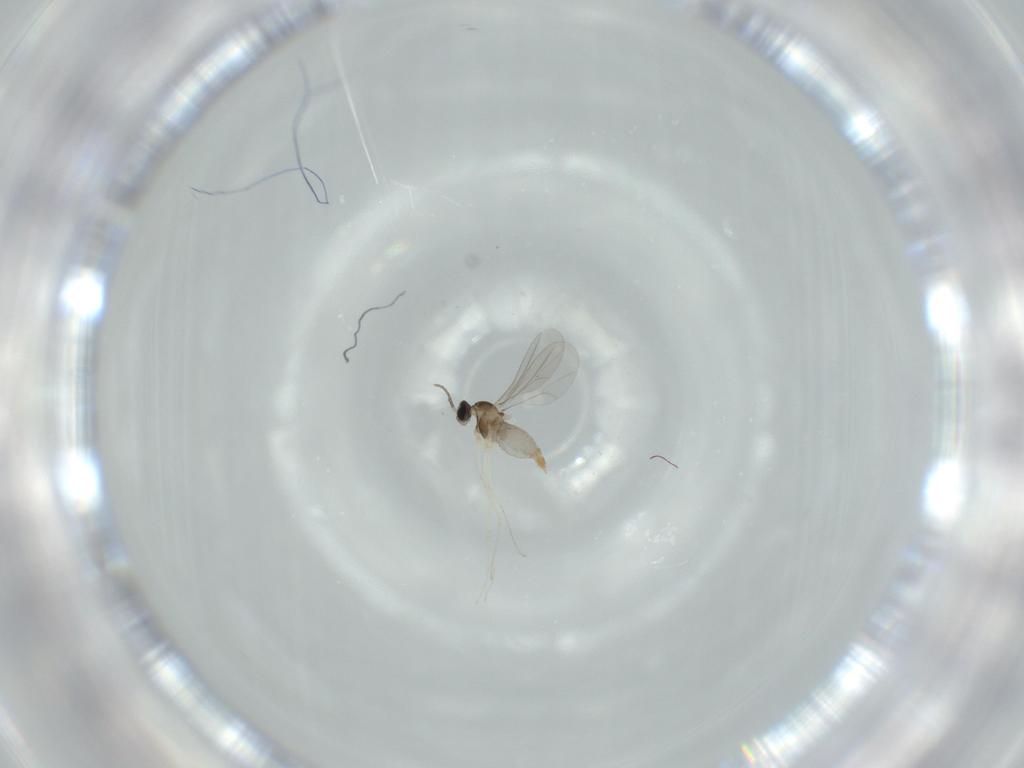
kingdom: Animalia
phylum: Arthropoda
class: Insecta
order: Diptera
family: Cecidomyiidae
